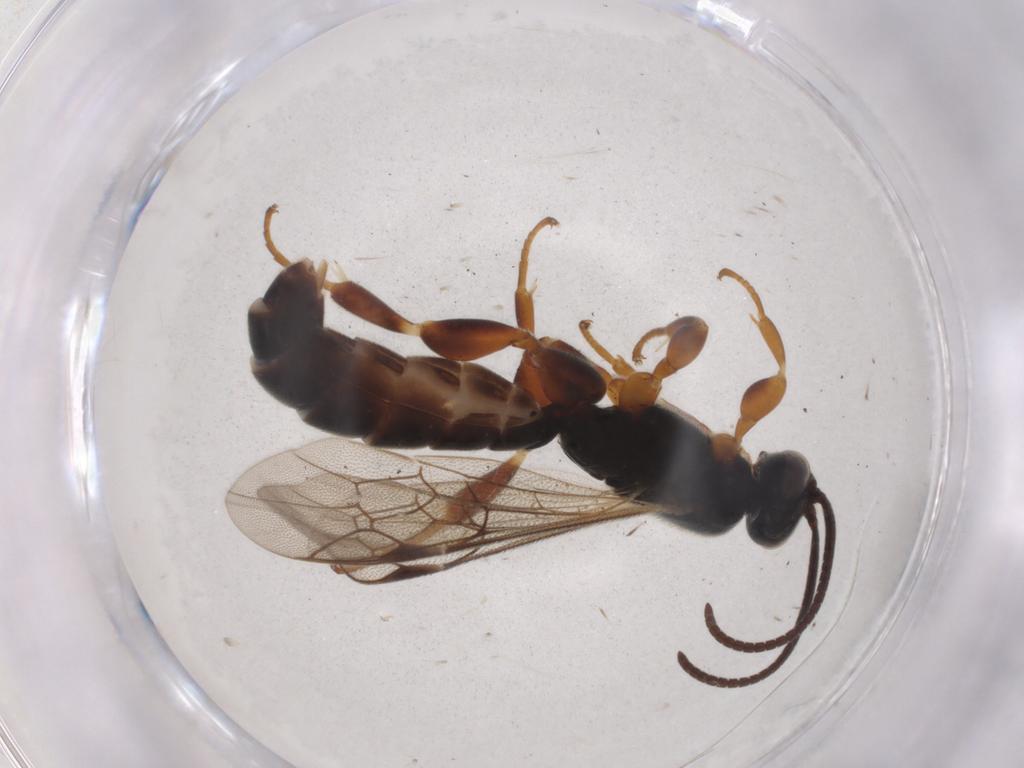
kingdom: Animalia
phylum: Arthropoda
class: Insecta
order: Hymenoptera
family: Ichneumonidae
